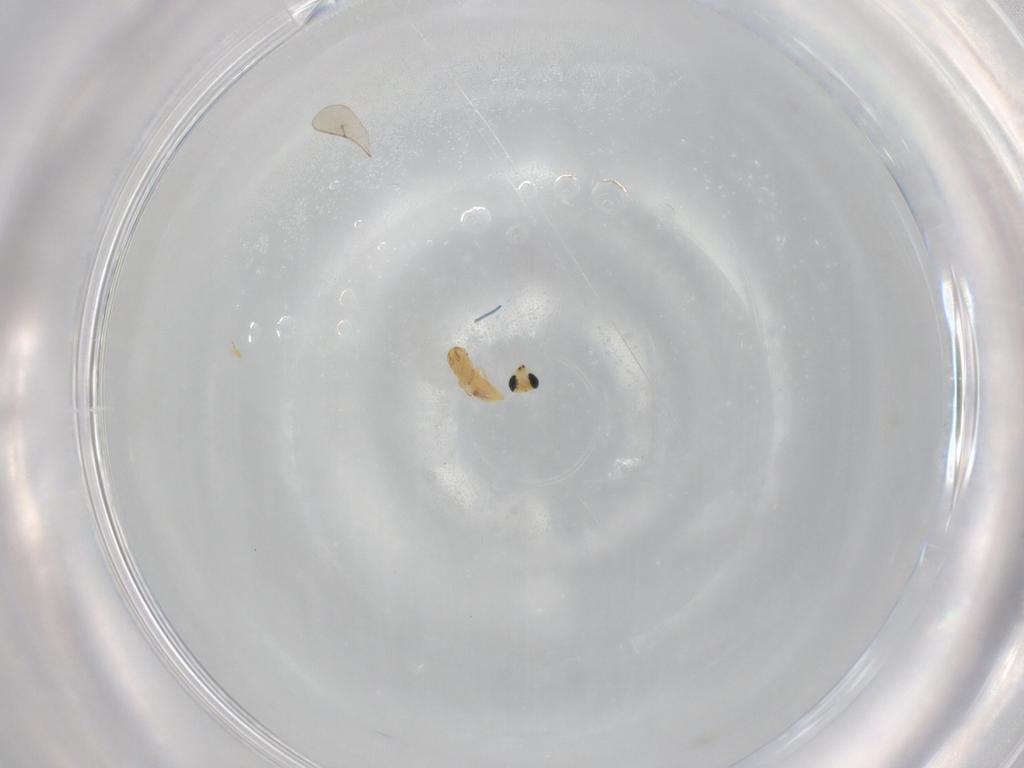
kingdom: Animalia
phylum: Arthropoda
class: Insecta
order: Hymenoptera
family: Trichogrammatidae
